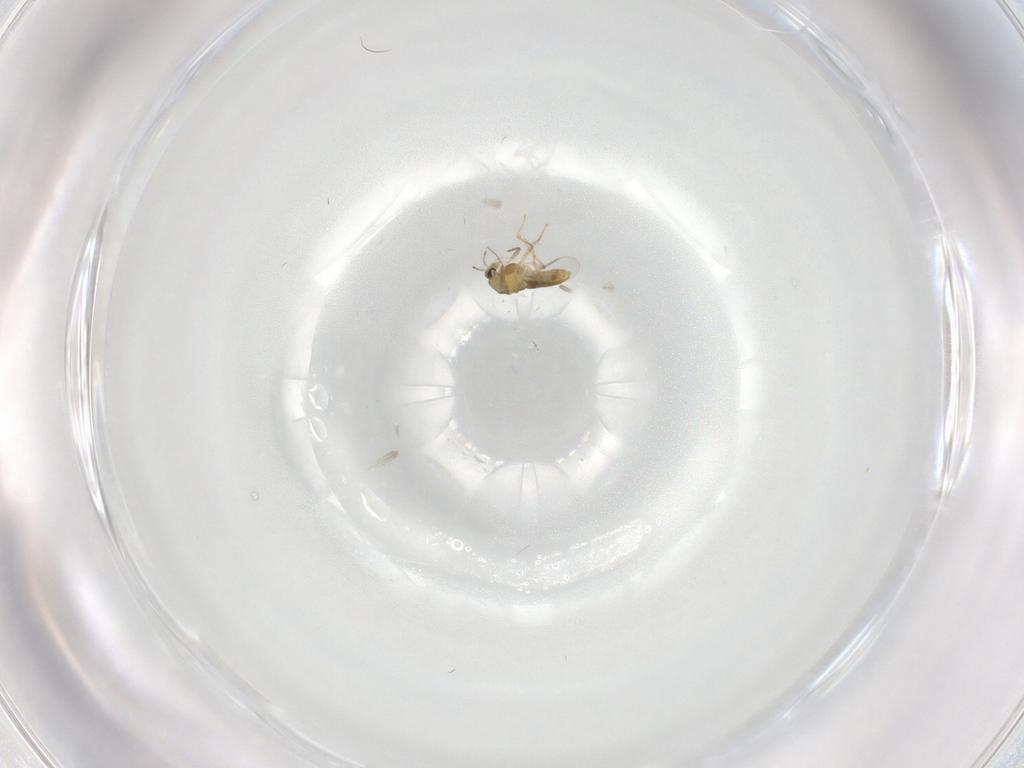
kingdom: Animalia
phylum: Arthropoda
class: Insecta
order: Diptera
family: Chironomidae
